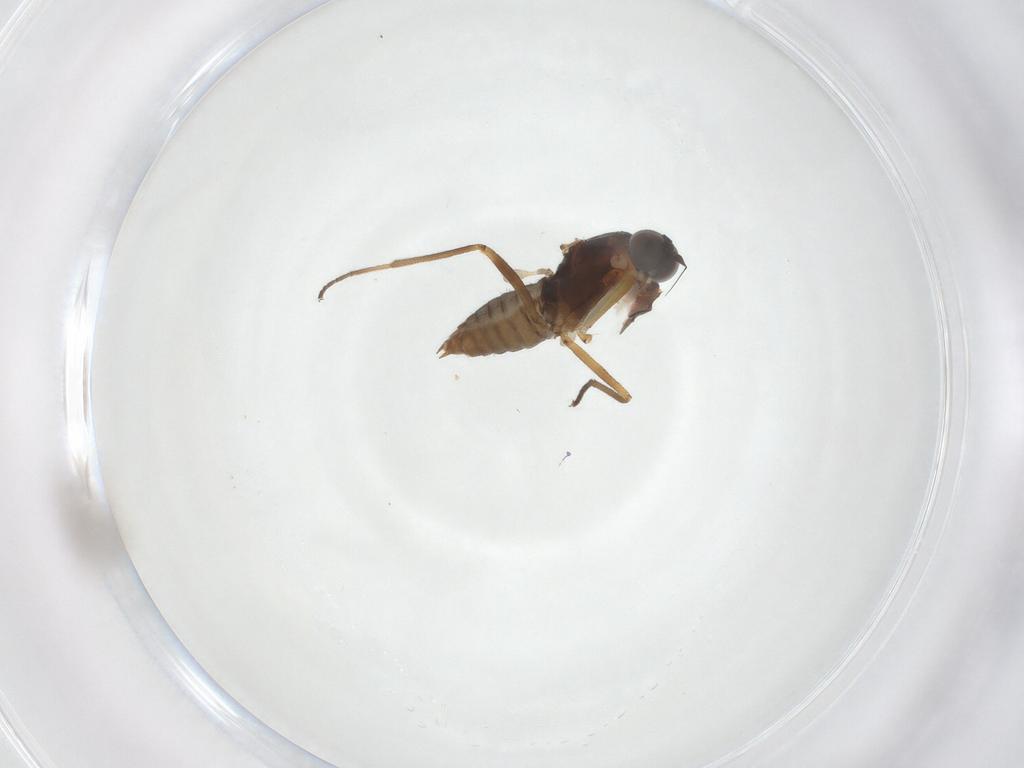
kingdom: Animalia
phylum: Arthropoda
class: Insecta
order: Diptera
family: Empididae
